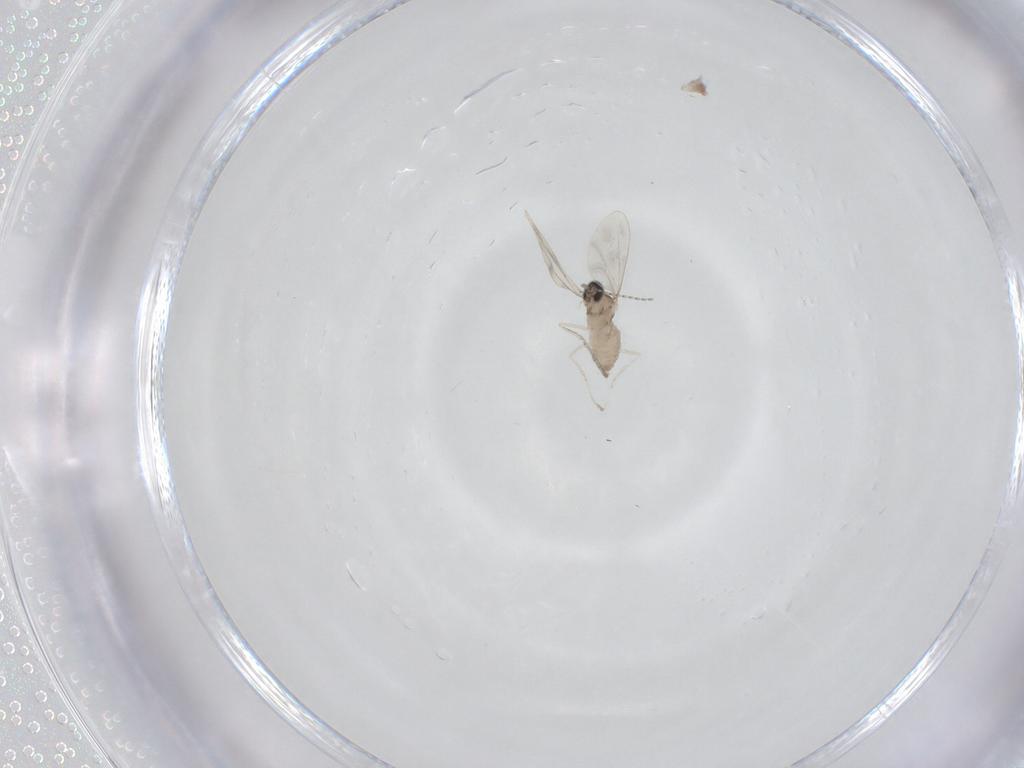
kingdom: Animalia
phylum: Arthropoda
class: Insecta
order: Diptera
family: Cecidomyiidae
